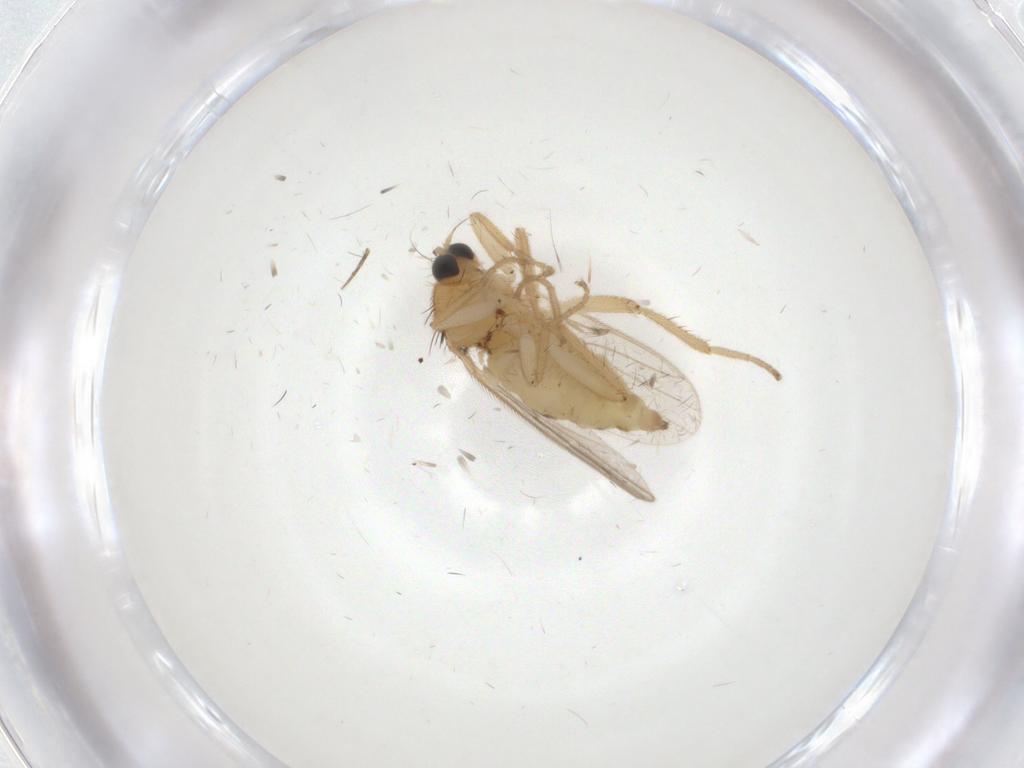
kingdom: Animalia
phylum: Arthropoda
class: Insecta
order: Diptera
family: Hybotidae
